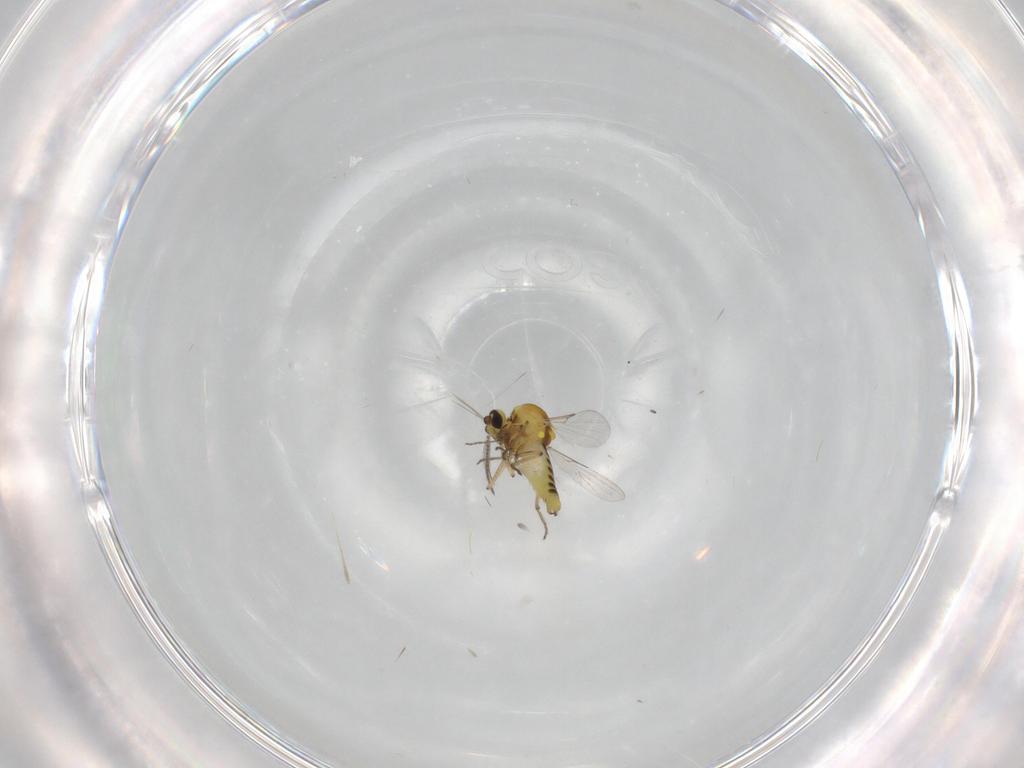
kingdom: Animalia
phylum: Arthropoda
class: Insecta
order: Diptera
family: Ceratopogonidae
